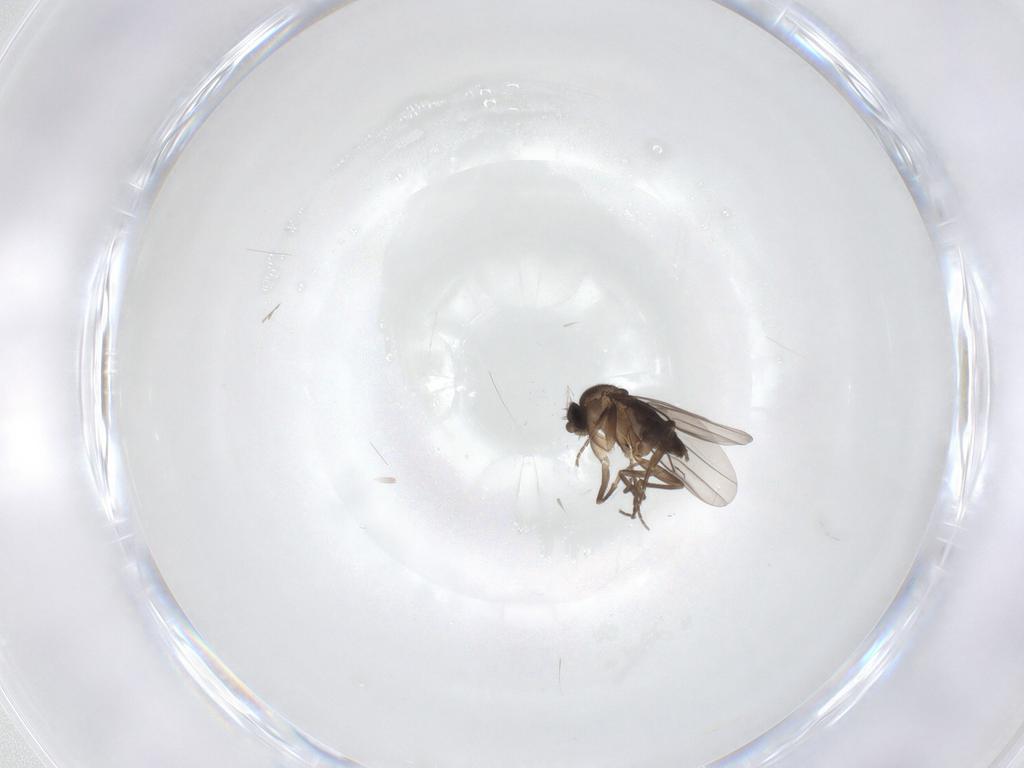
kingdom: Animalia
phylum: Arthropoda
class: Insecta
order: Diptera
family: Phoridae
